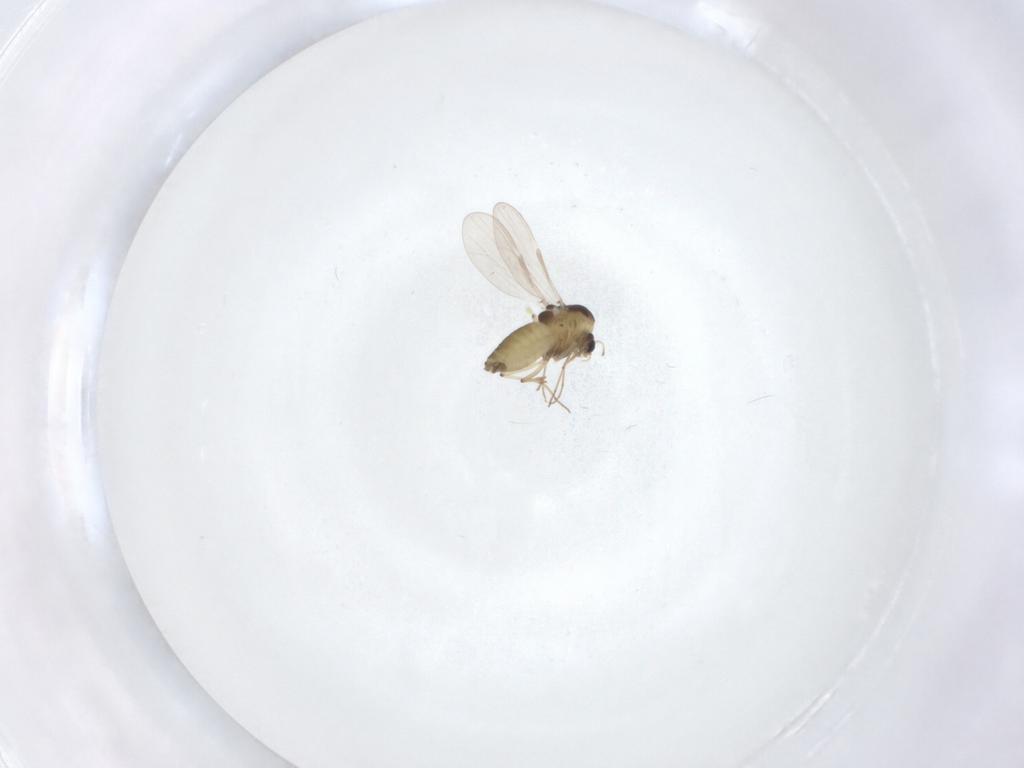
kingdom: Animalia
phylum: Arthropoda
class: Insecta
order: Diptera
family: Chironomidae
